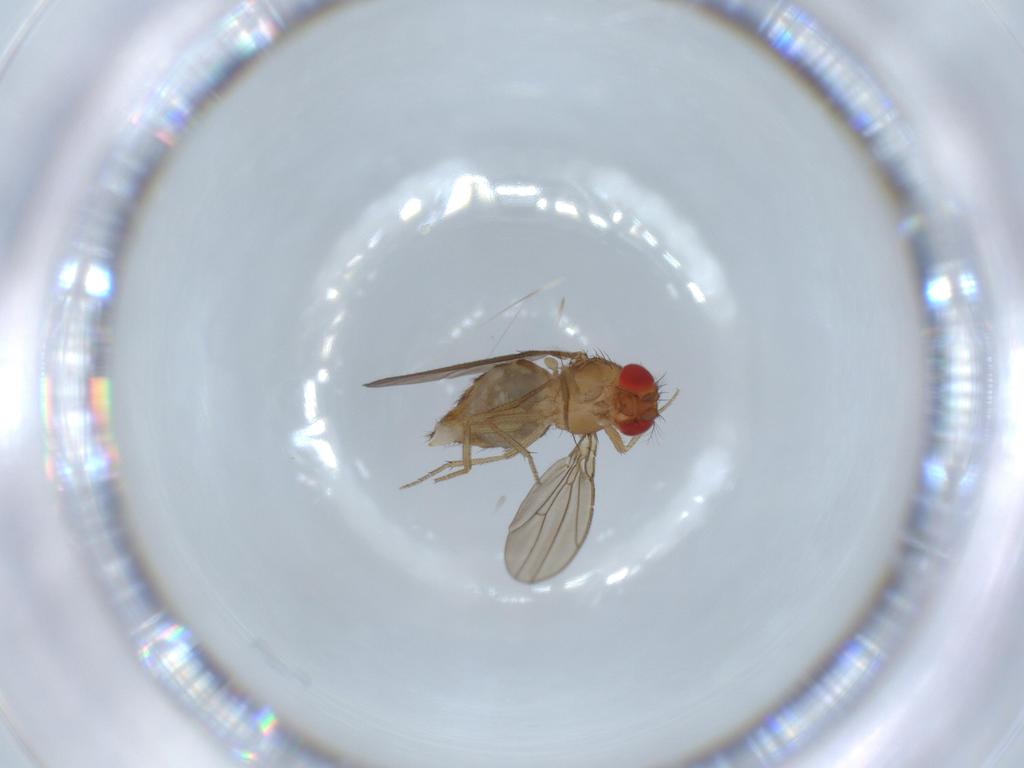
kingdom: Animalia
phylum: Arthropoda
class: Insecta
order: Diptera
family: Drosophilidae
